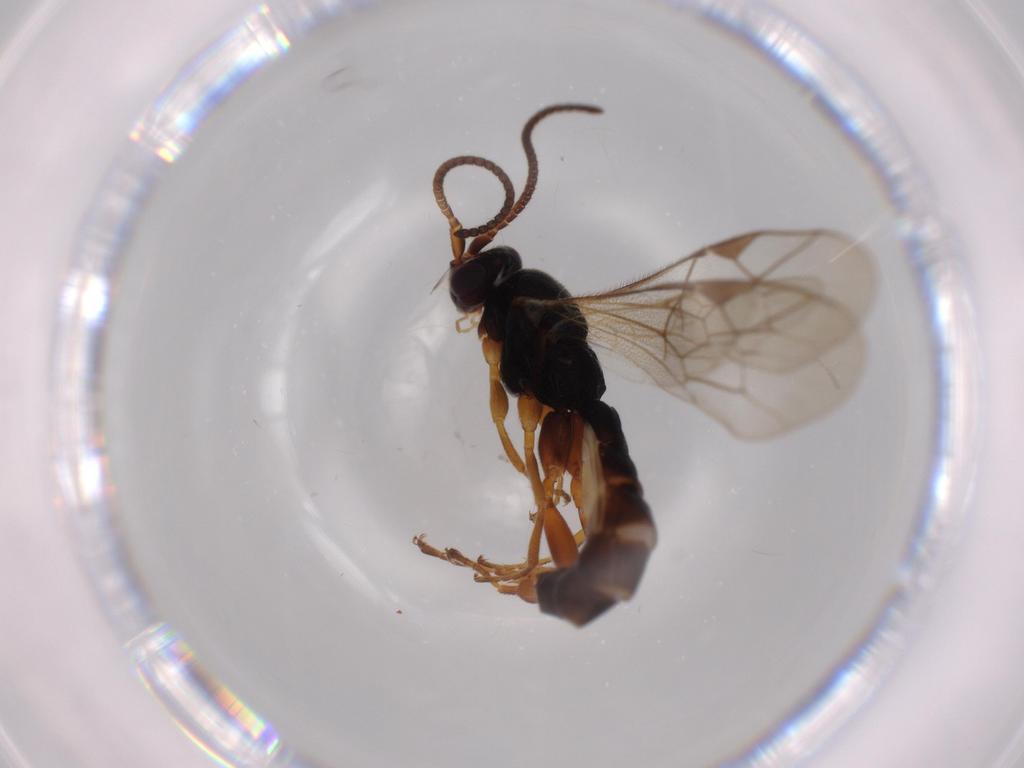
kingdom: Animalia
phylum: Arthropoda
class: Insecta
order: Hymenoptera
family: Ichneumonidae
